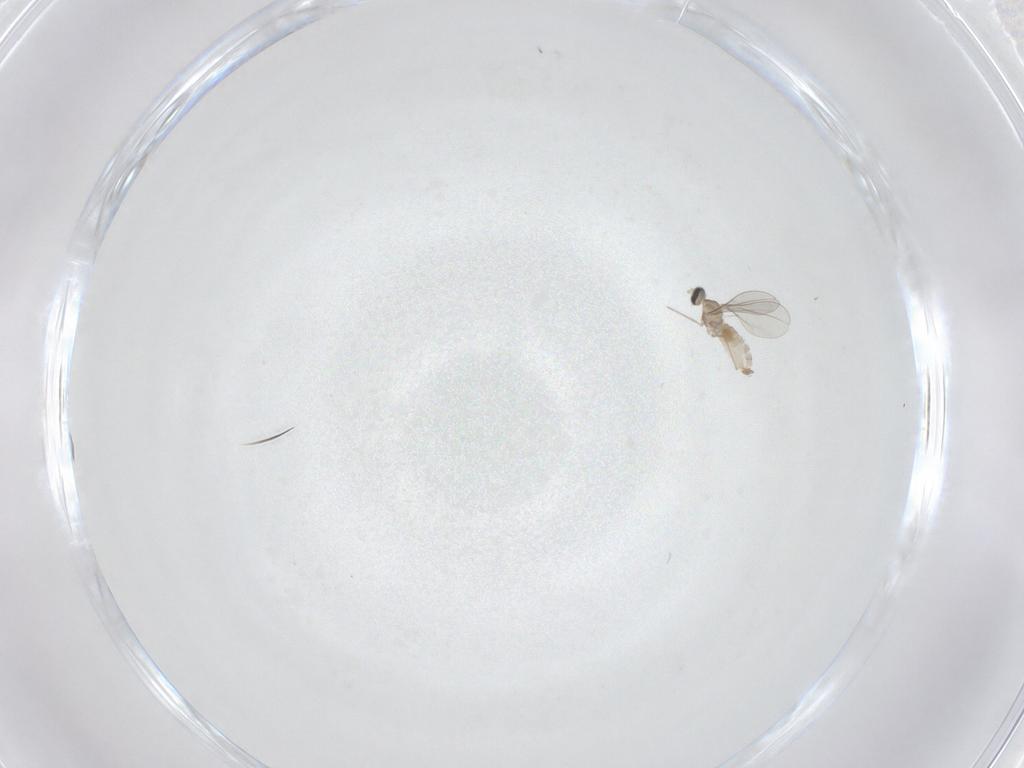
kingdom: Animalia
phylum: Arthropoda
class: Insecta
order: Diptera
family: Cecidomyiidae
